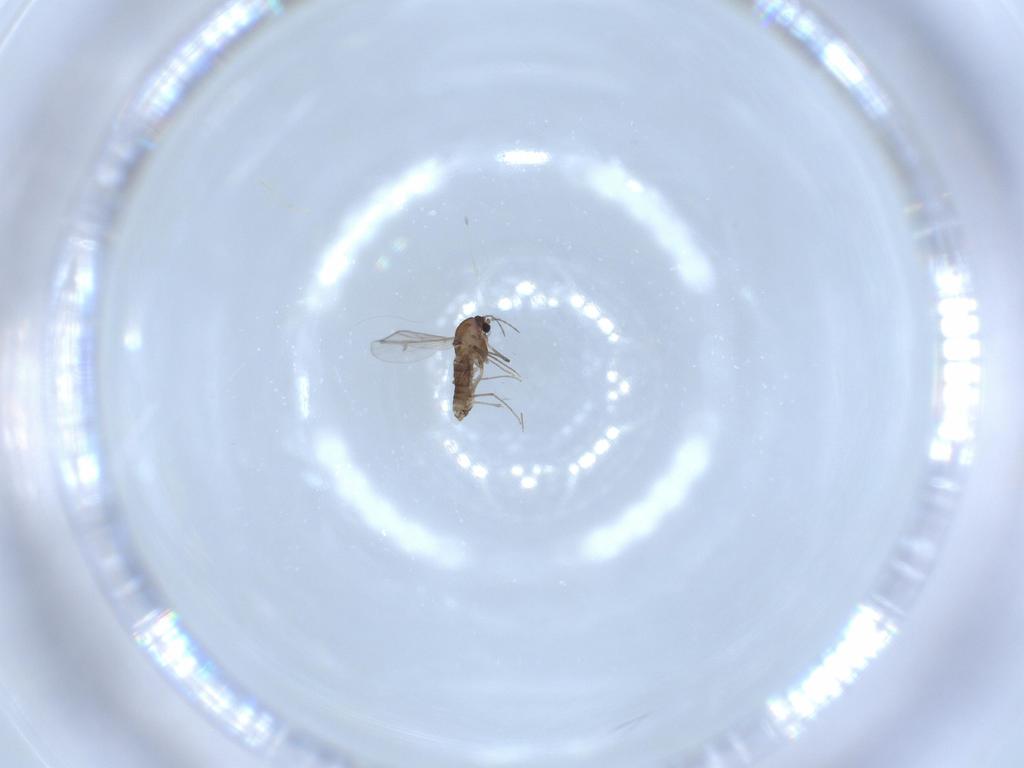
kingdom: Animalia
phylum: Arthropoda
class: Insecta
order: Diptera
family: Chironomidae
